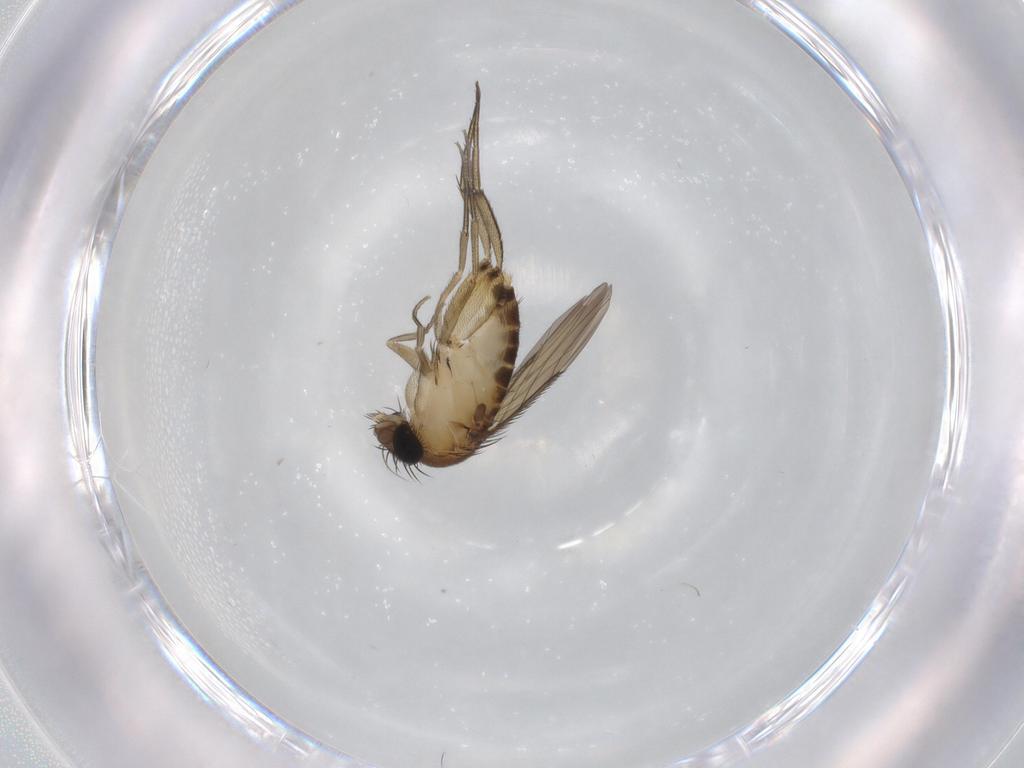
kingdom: Animalia
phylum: Arthropoda
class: Insecta
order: Diptera
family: Phoridae
